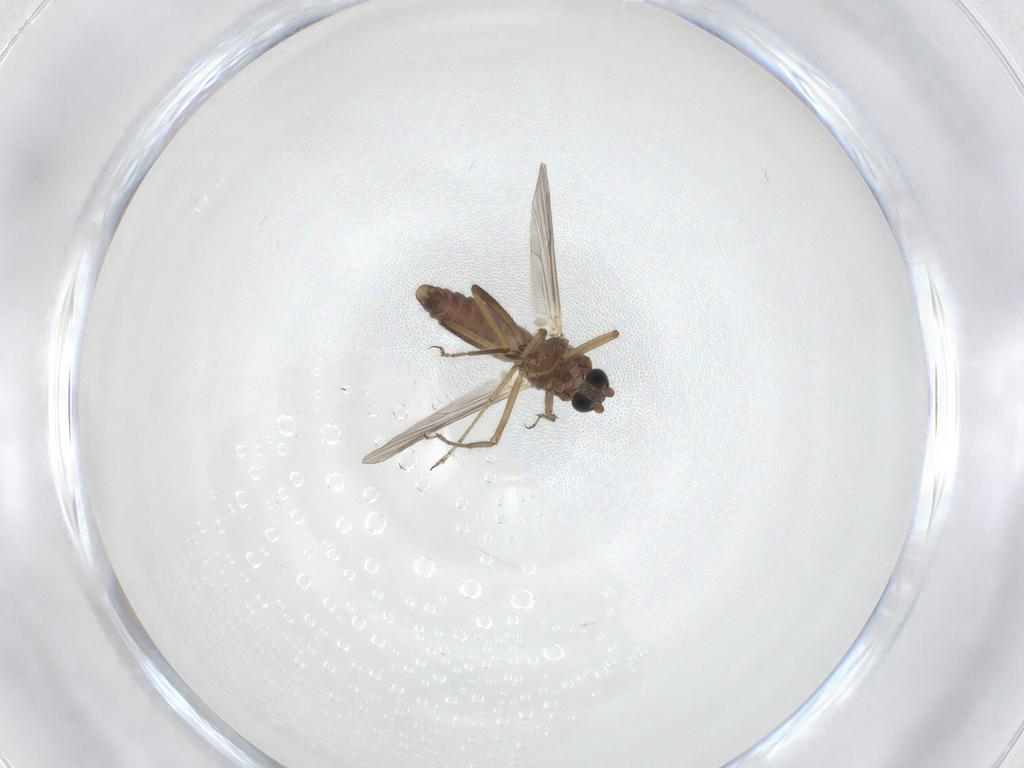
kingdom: Animalia
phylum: Arthropoda
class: Insecta
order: Diptera
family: Ceratopogonidae
